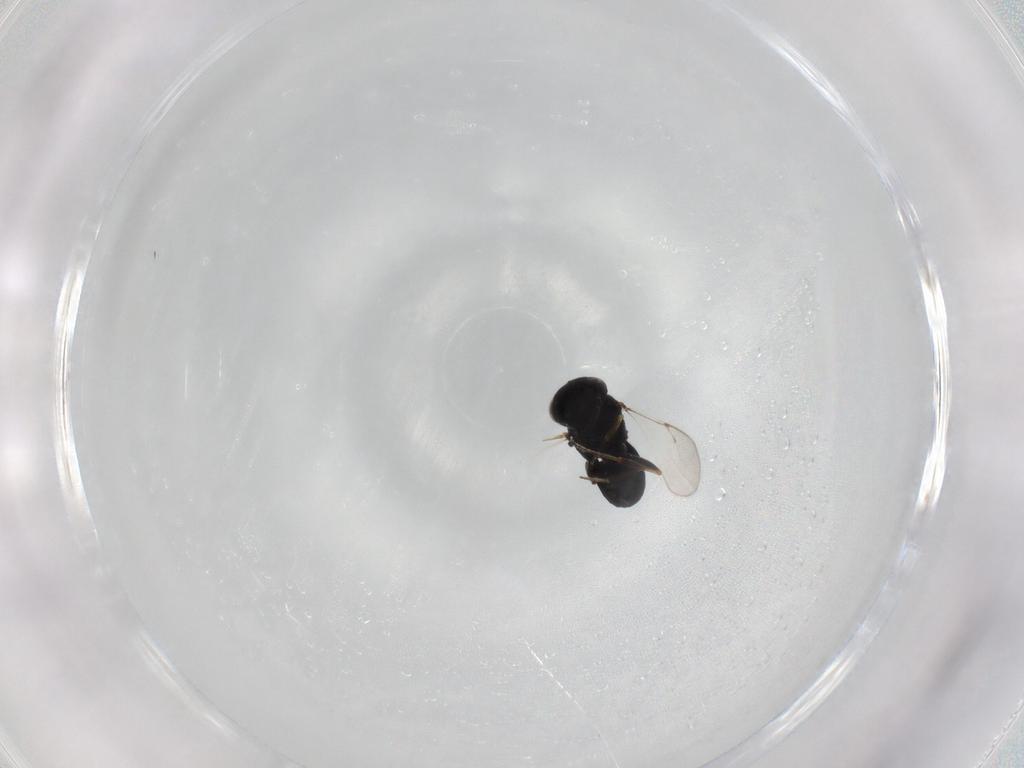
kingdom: Animalia
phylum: Arthropoda
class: Insecta
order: Hymenoptera
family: Scelionidae
